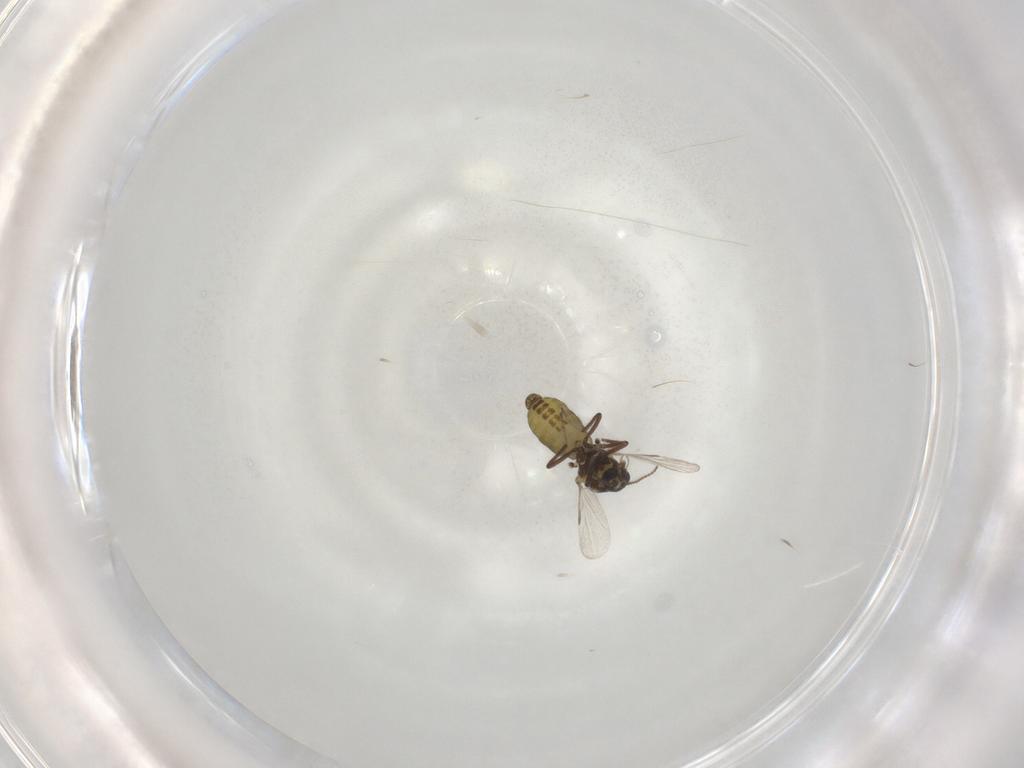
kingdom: Animalia
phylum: Arthropoda
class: Insecta
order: Diptera
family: Ceratopogonidae
